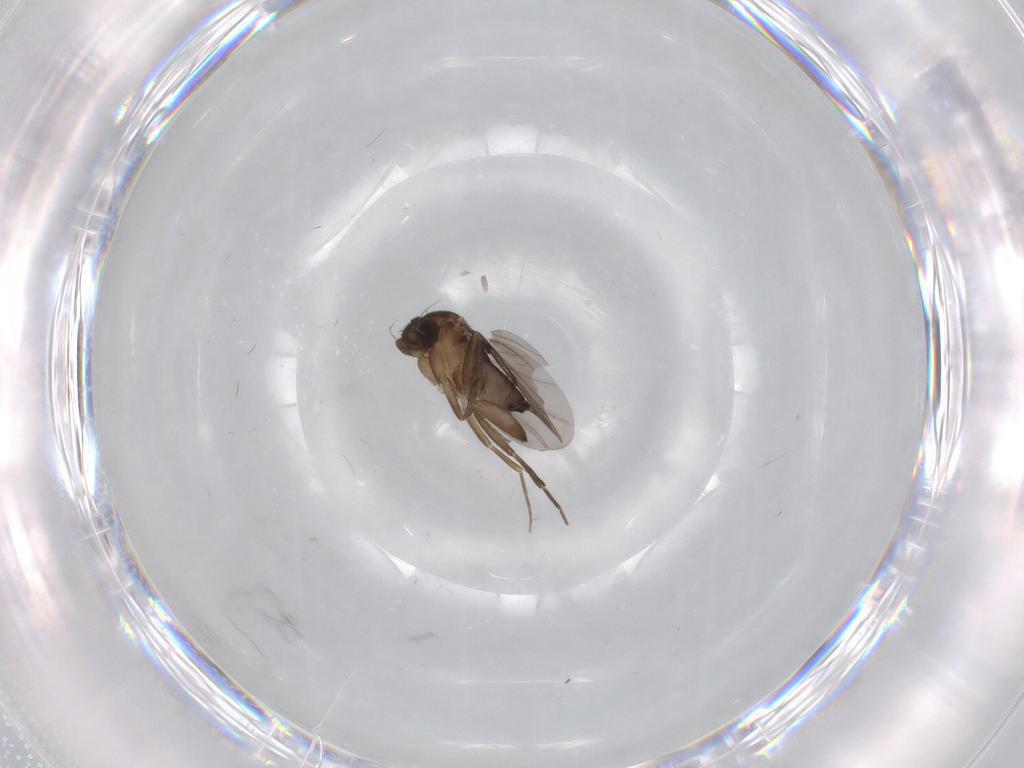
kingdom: Animalia
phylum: Arthropoda
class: Insecta
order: Diptera
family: Phoridae
